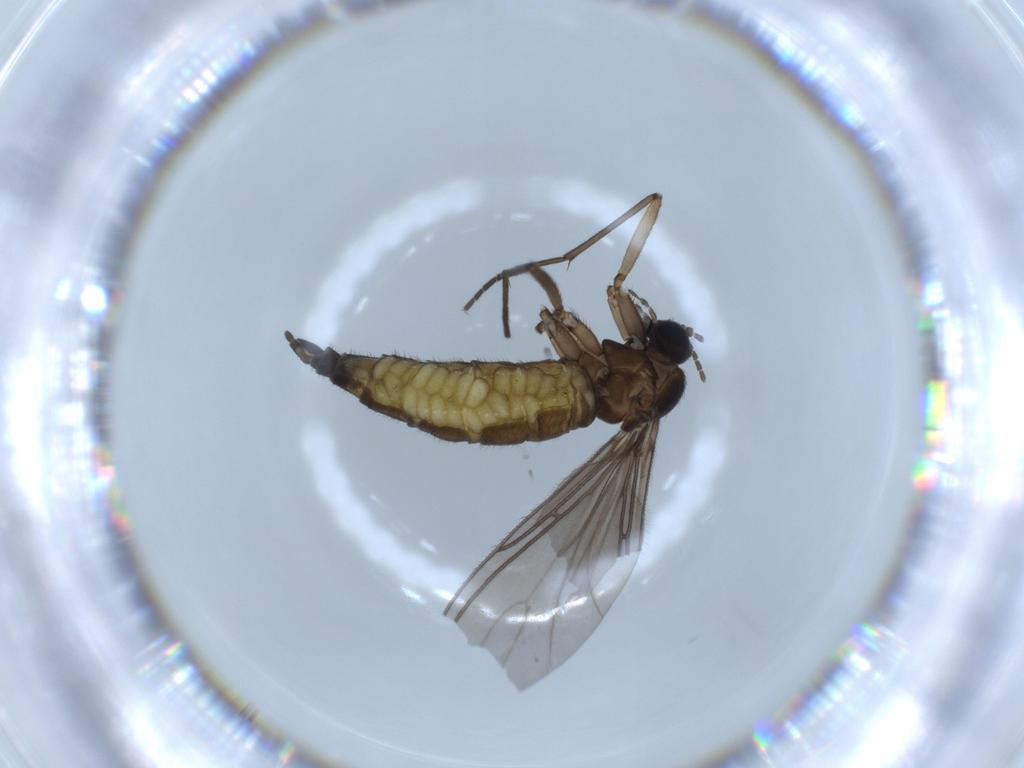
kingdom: Animalia
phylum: Arthropoda
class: Insecta
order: Diptera
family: Sciaridae
